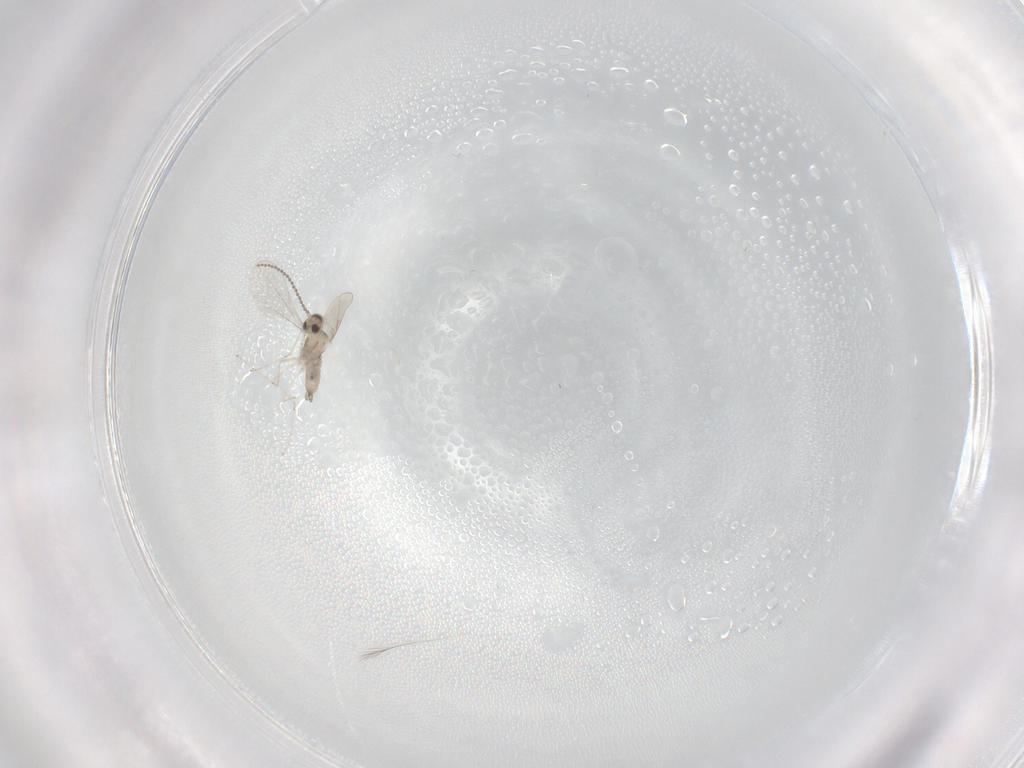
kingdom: Animalia
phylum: Arthropoda
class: Insecta
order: Diptera
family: Cecidomyiidae
